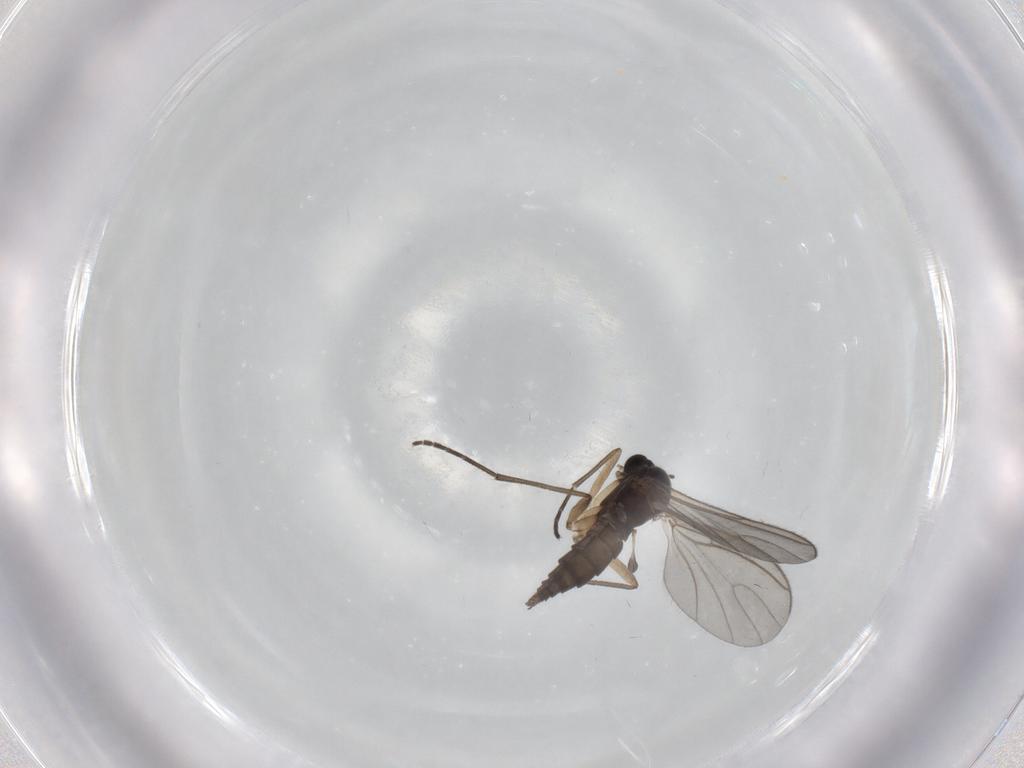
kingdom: Animalia
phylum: Arthropoda
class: Insecta
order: Diptera
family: Sciaridae
